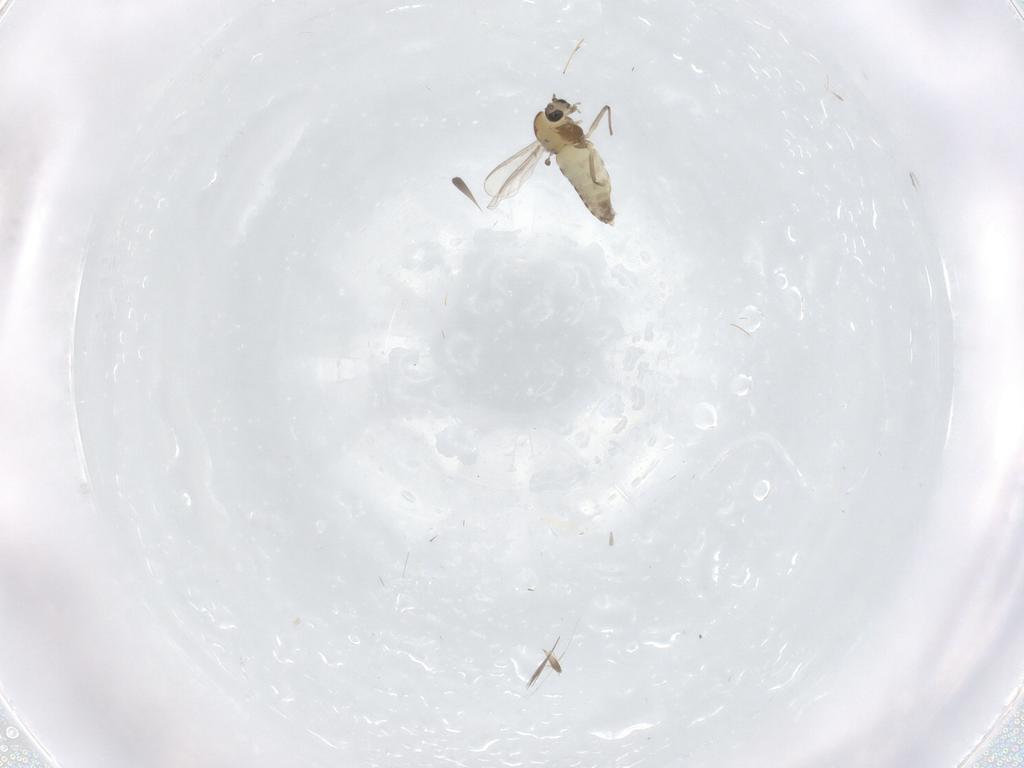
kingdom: Animalia
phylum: Arthropoda
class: Insecta
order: Diptera
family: Chironomidae
